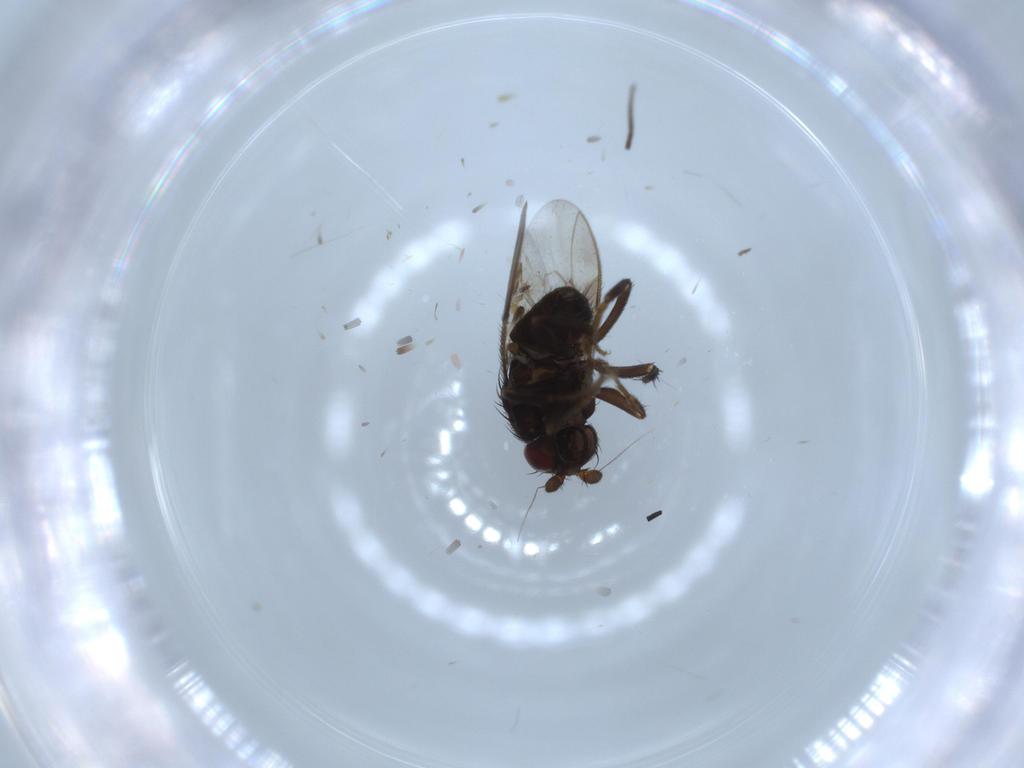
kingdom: Animalia
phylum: Arthropoda
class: Insecta
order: Diptera
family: Sphaeroceridae
